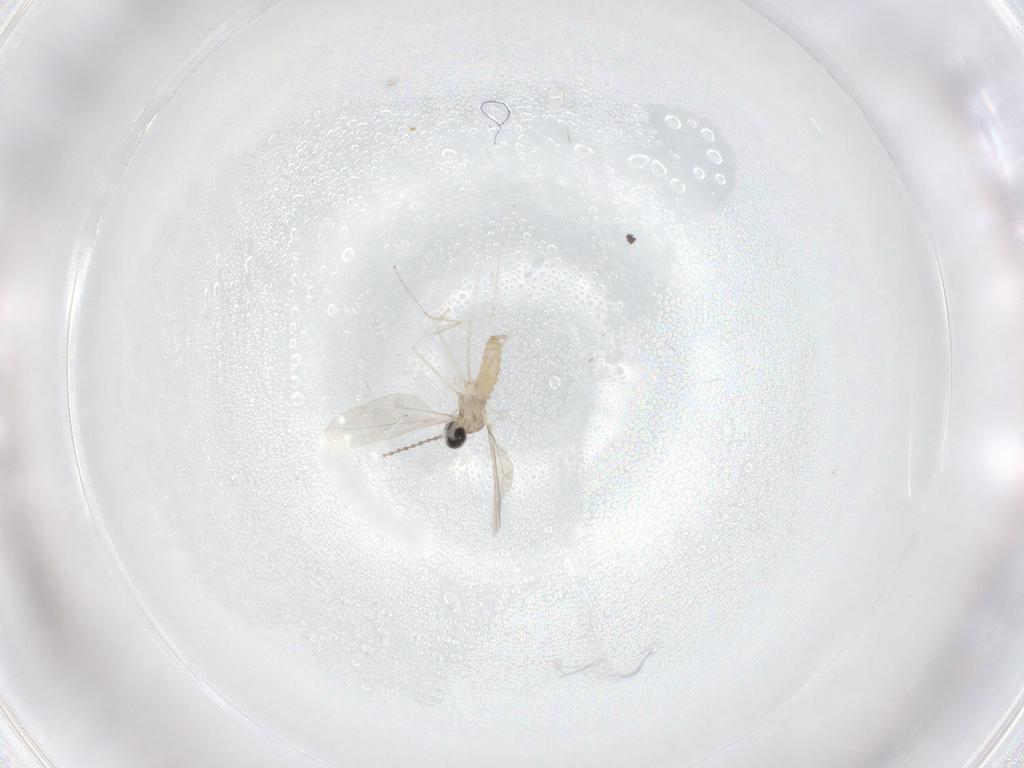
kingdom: Animalia
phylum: Arthropoda
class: Insecta
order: Diptera
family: Cecidomyiidae
